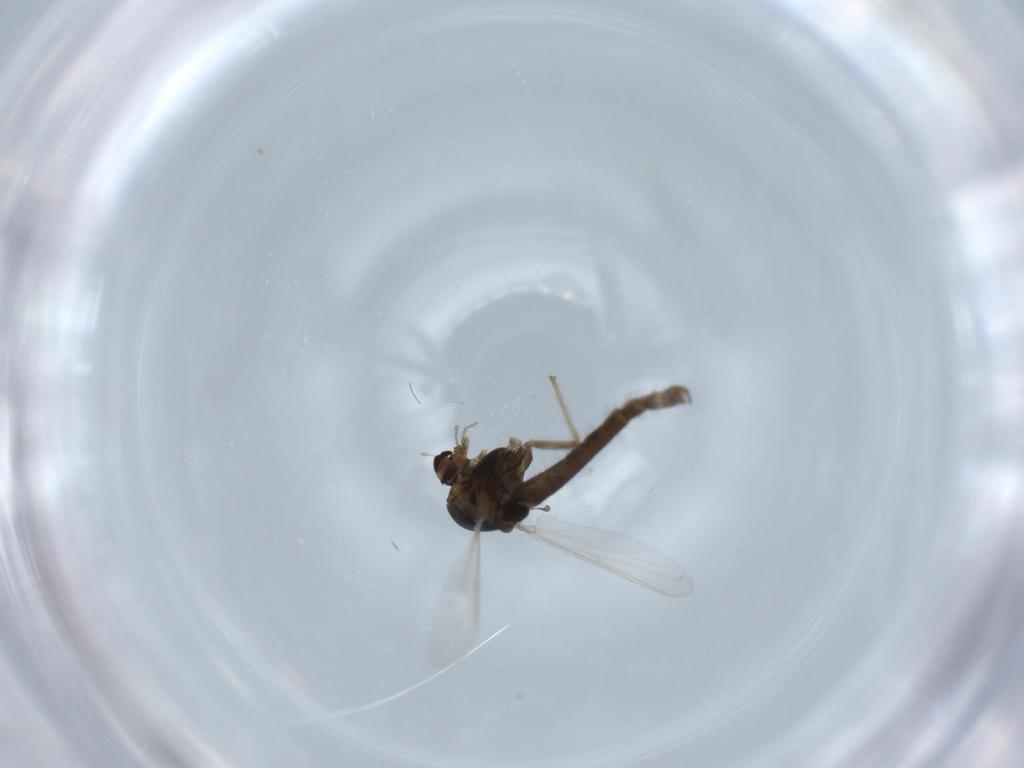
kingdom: Animalia
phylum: Arthropoda
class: Insecta
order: Diptera
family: Chironomidae
